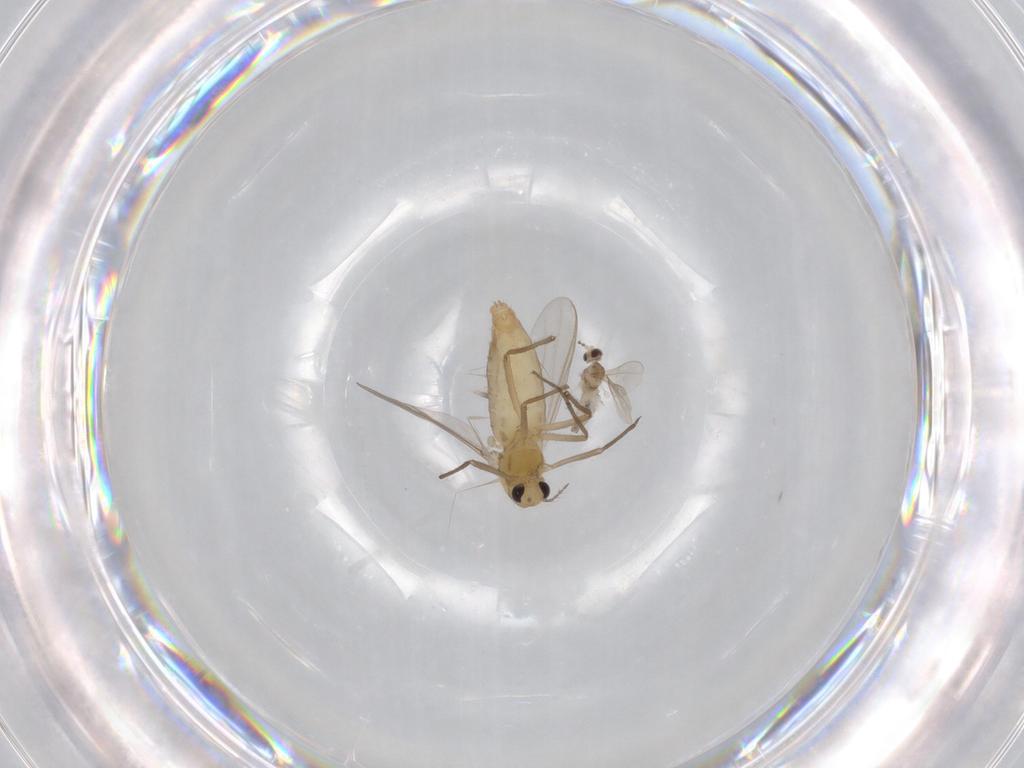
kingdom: Animalia
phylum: Arthropoda
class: Insecta
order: Diptera
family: Chironomidae
